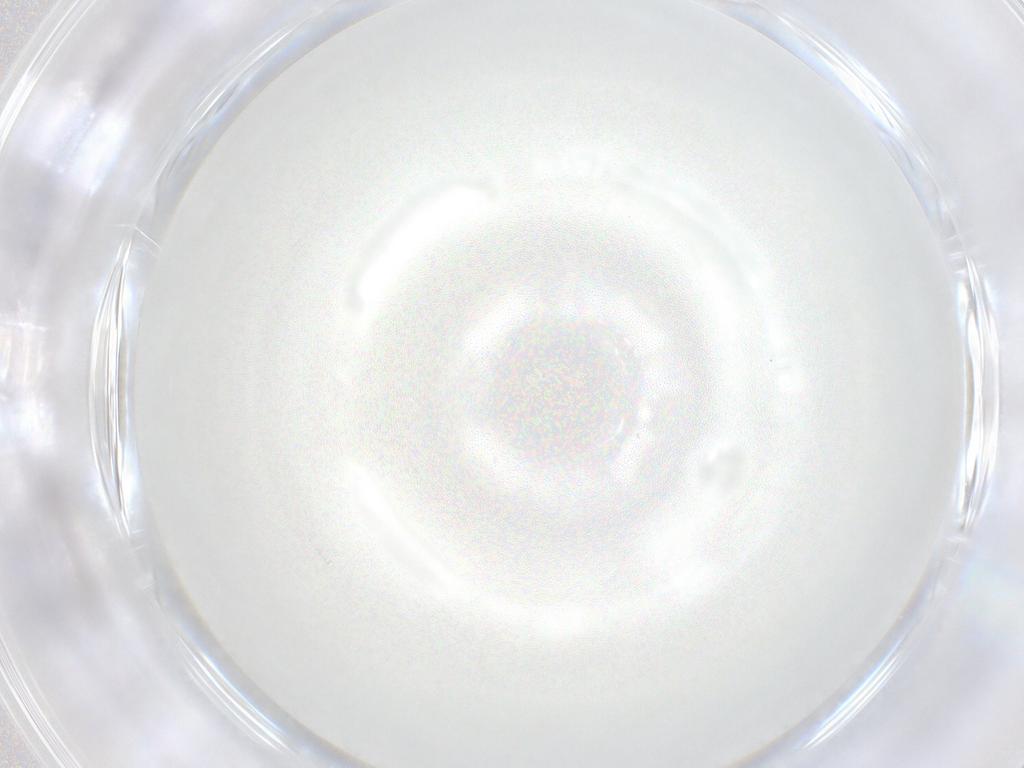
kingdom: Animalia
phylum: Arthropoda
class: Insecta
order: Diptera
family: Chironomidae
